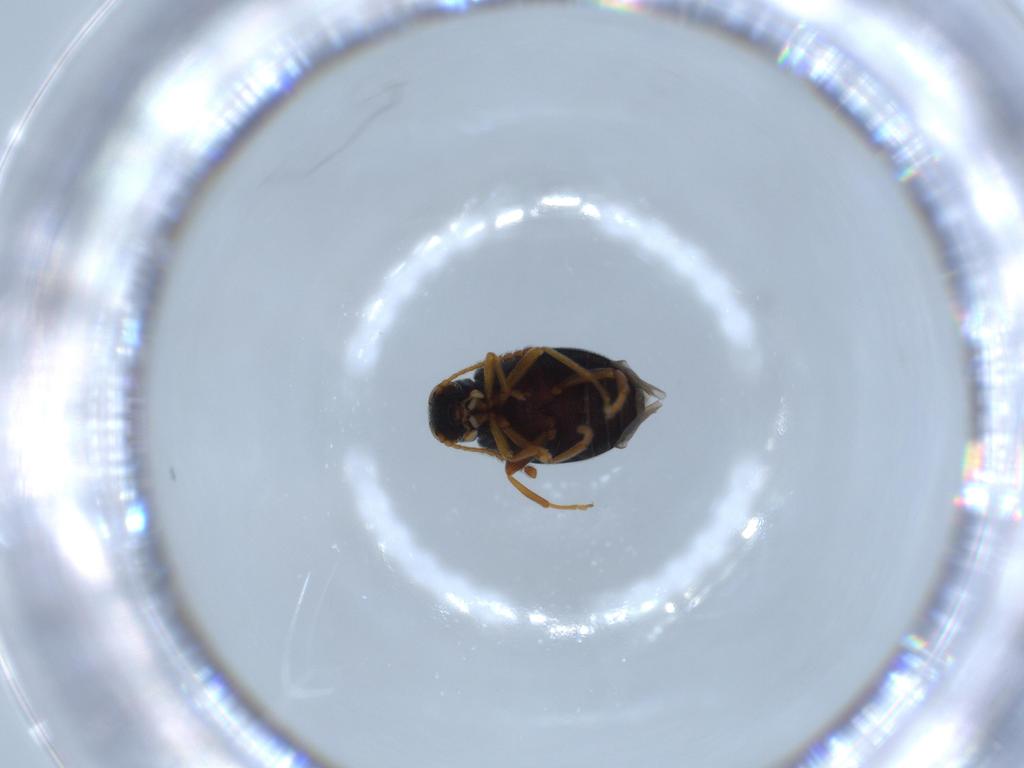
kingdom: Animalia
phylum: Arthropoda
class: Insecta
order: Coleoptera
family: Aderidae
